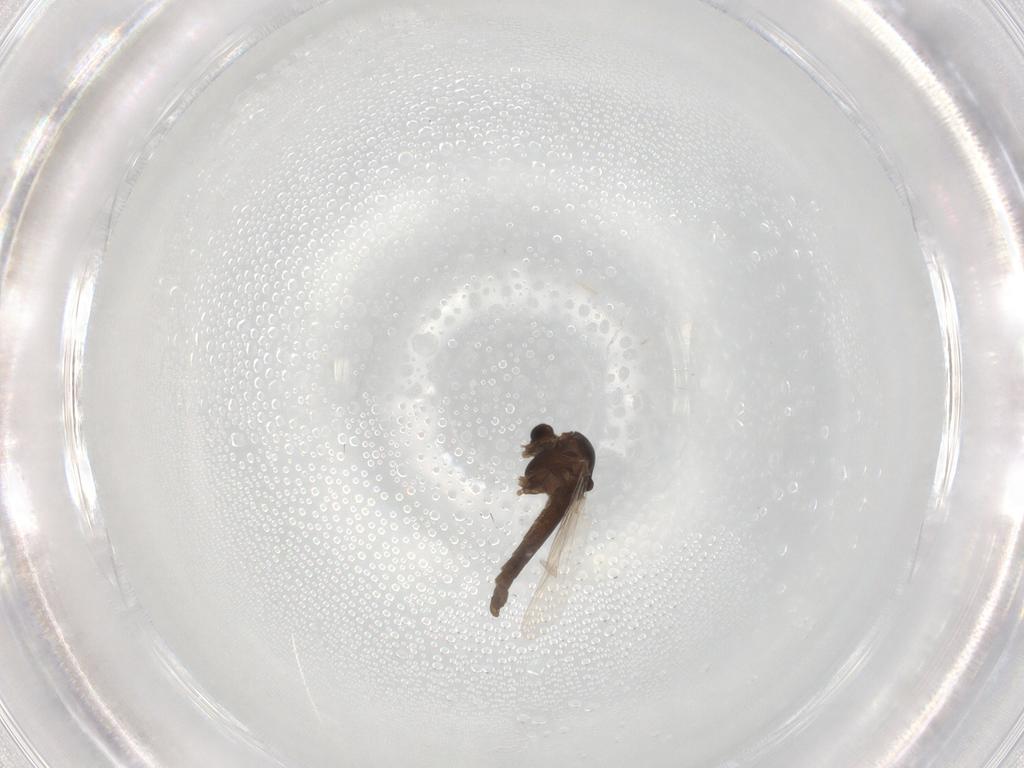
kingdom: Animalia
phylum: Arthropoda
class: Insecta
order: Diptera
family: Chironomidae
